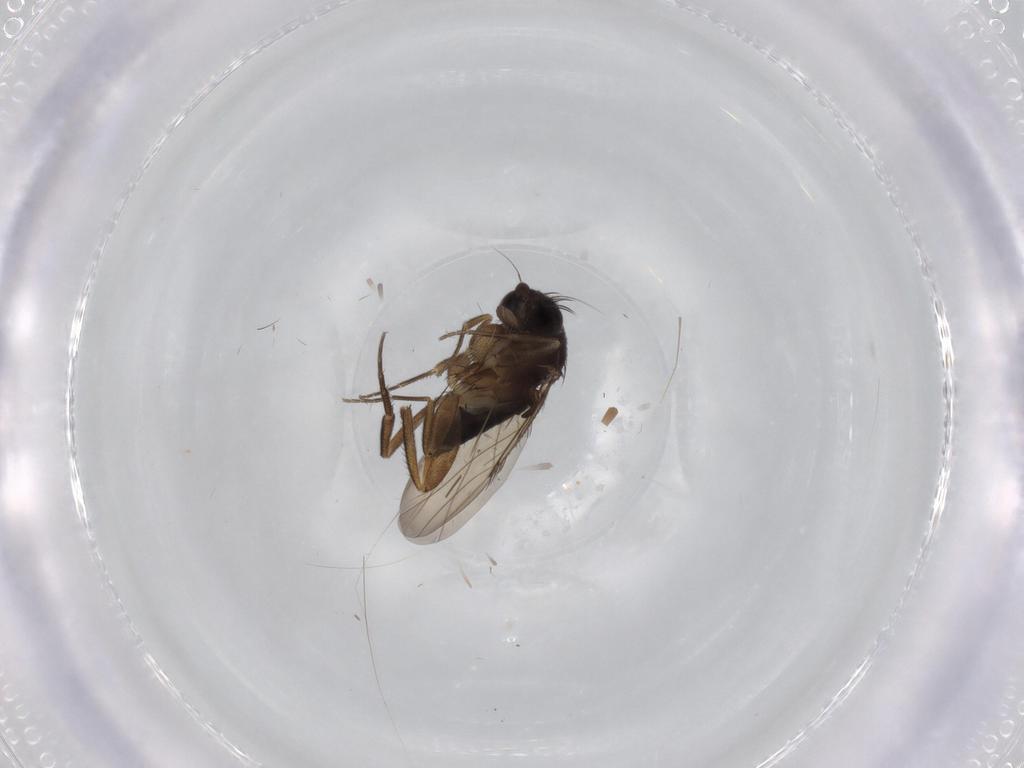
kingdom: Animalia
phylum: Arthropoda
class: Insecta
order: Diptera
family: Phoridae
